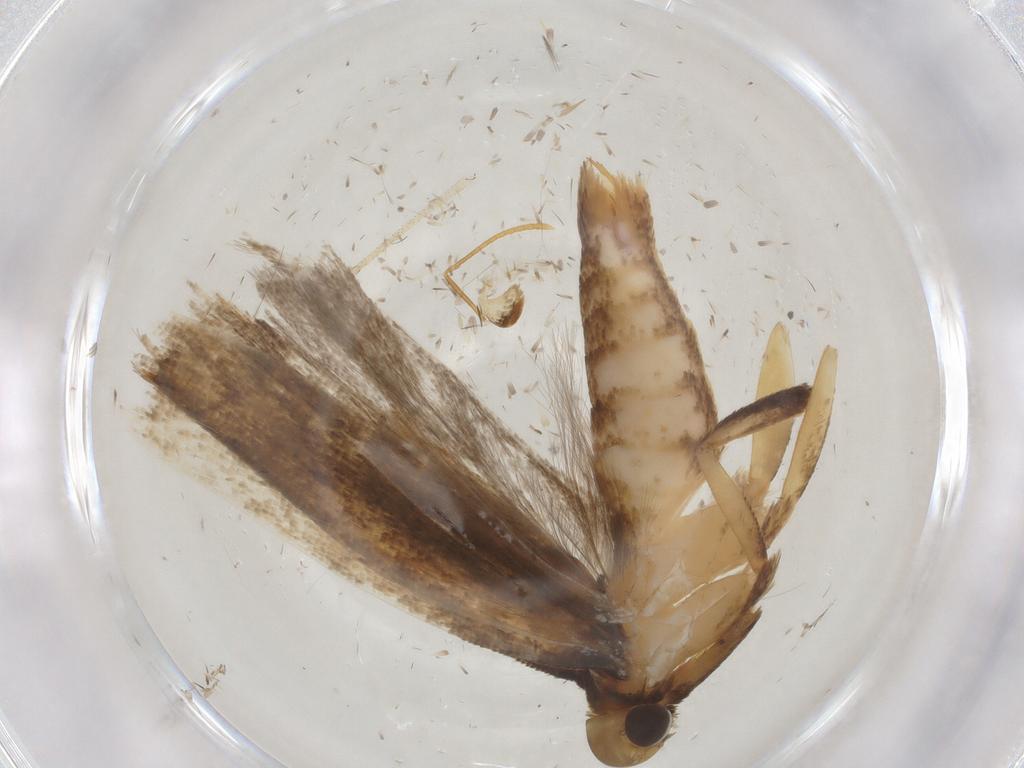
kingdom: Animalia
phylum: Arthropoda
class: Insecta
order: Lepidoptera
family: Gelechiidae
